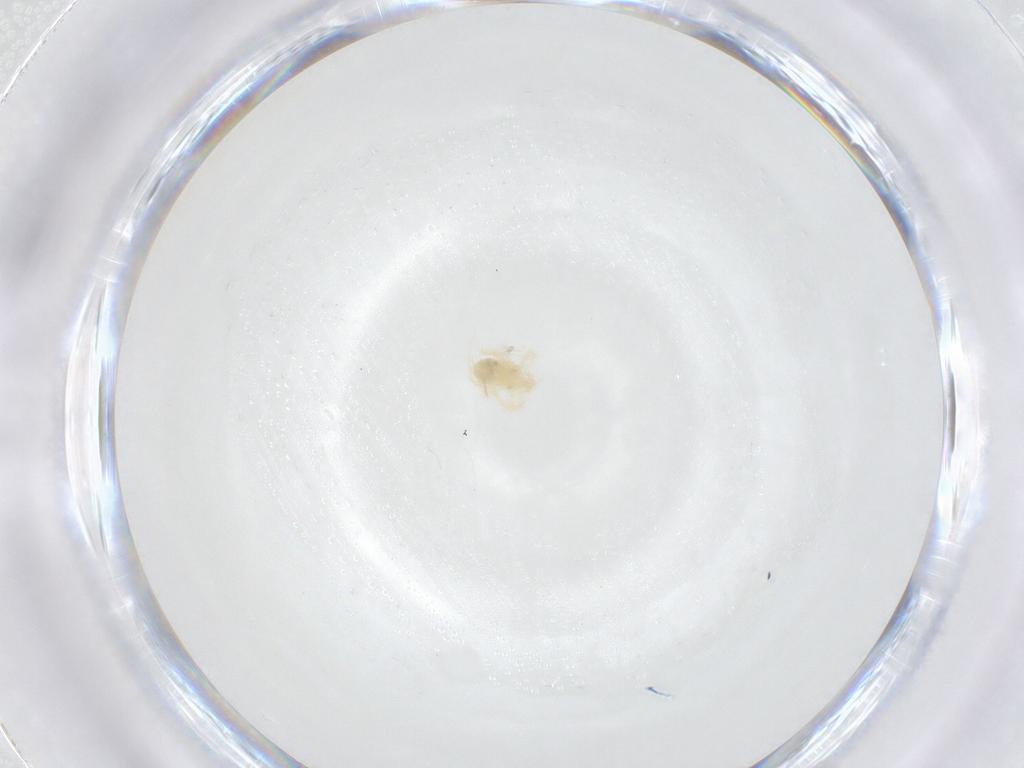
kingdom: Animalia
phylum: Arthropoda
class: Arachnida
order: Trombidiformes
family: Anystidae
